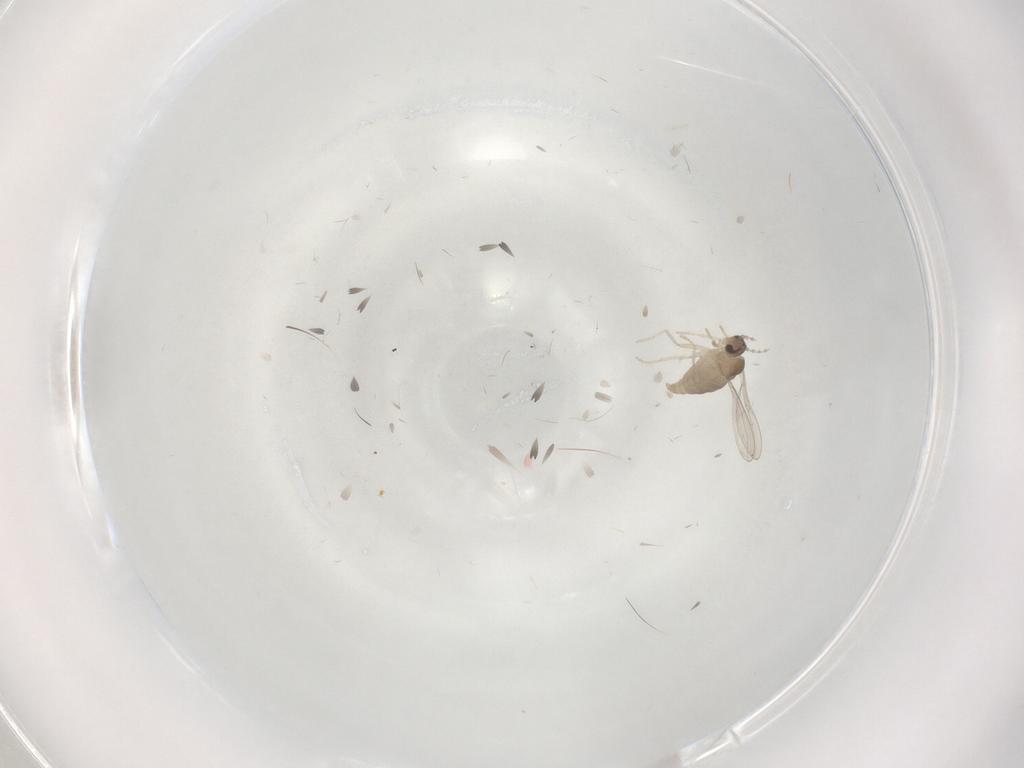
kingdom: Animalia
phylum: Arthropoda
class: Insecta
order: Diptera
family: Cecidomyiidae
